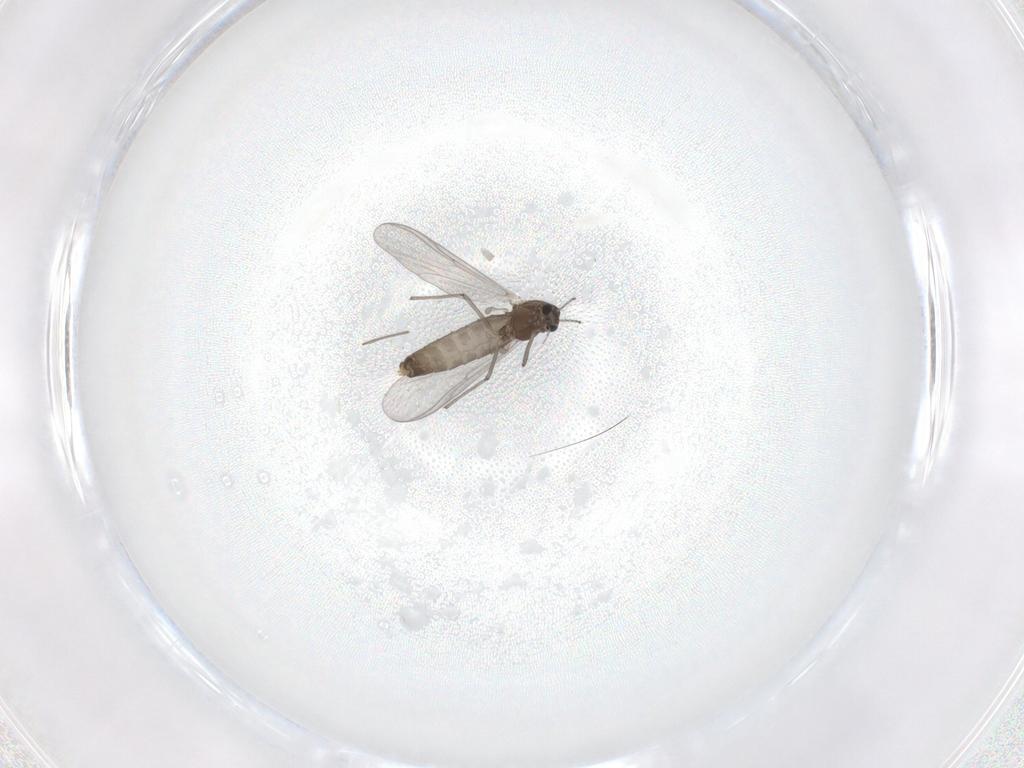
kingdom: Animalia
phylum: Arthropoda
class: Insecta
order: Diptera
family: Chironomidae
